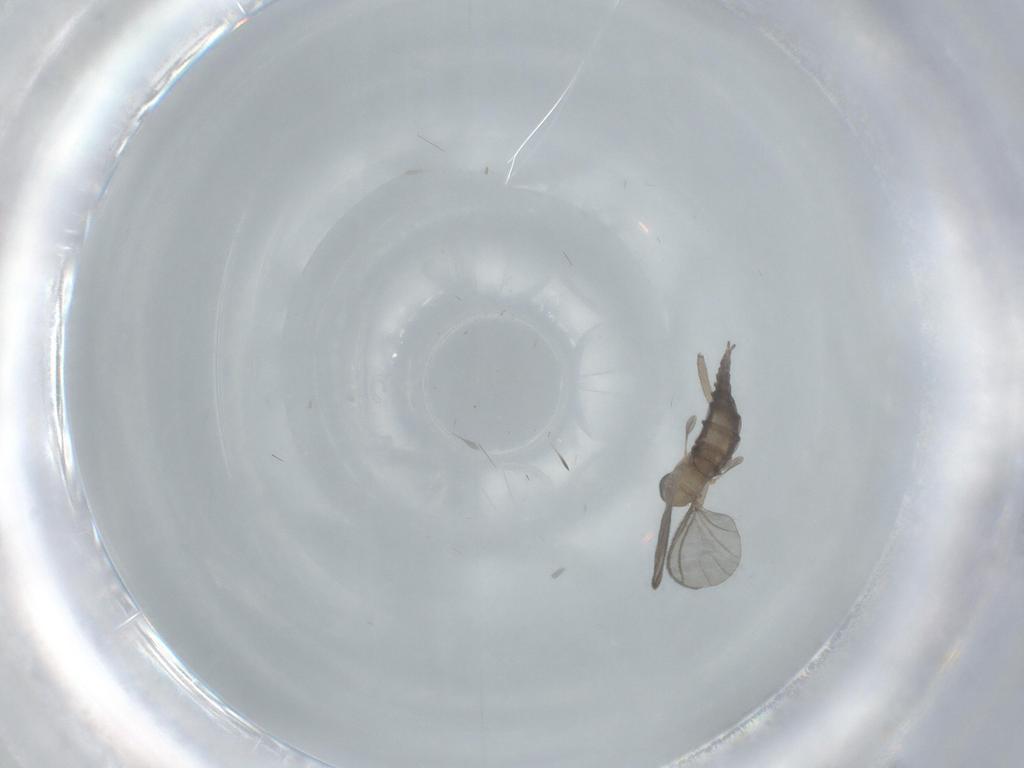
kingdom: Animalia
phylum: Arthropoda
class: Insecta
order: Diptera
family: Sciaridae
